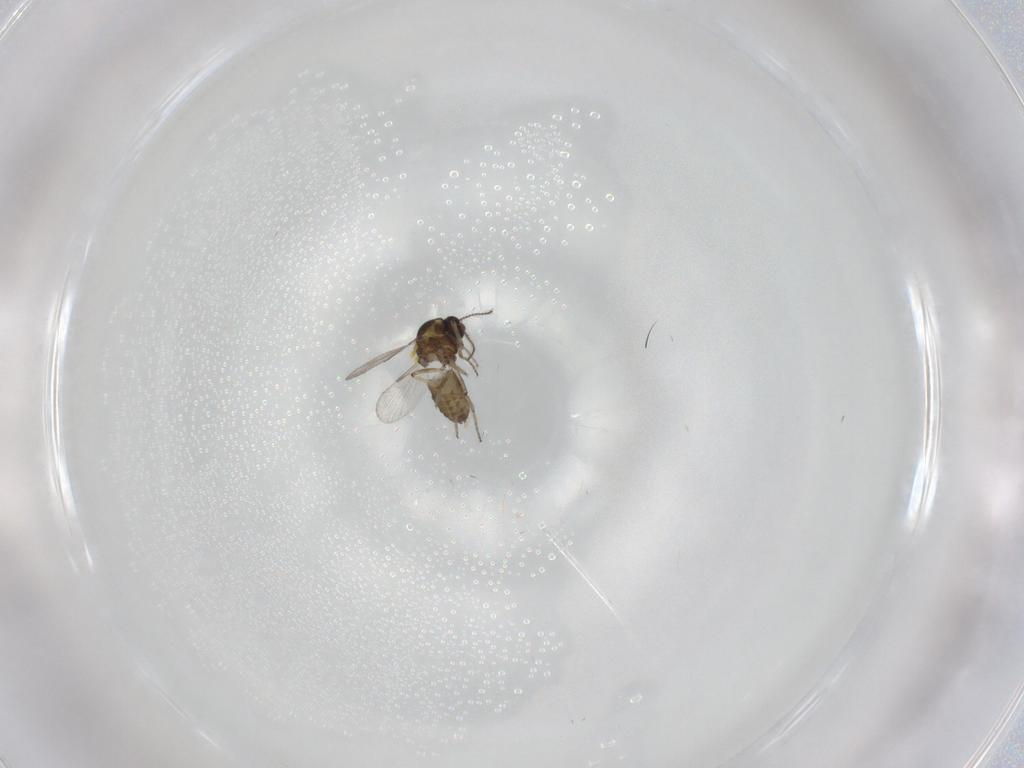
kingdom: Animalia
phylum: Arthropoda
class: Insecta
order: Diptera
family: Ceratopogonidae
